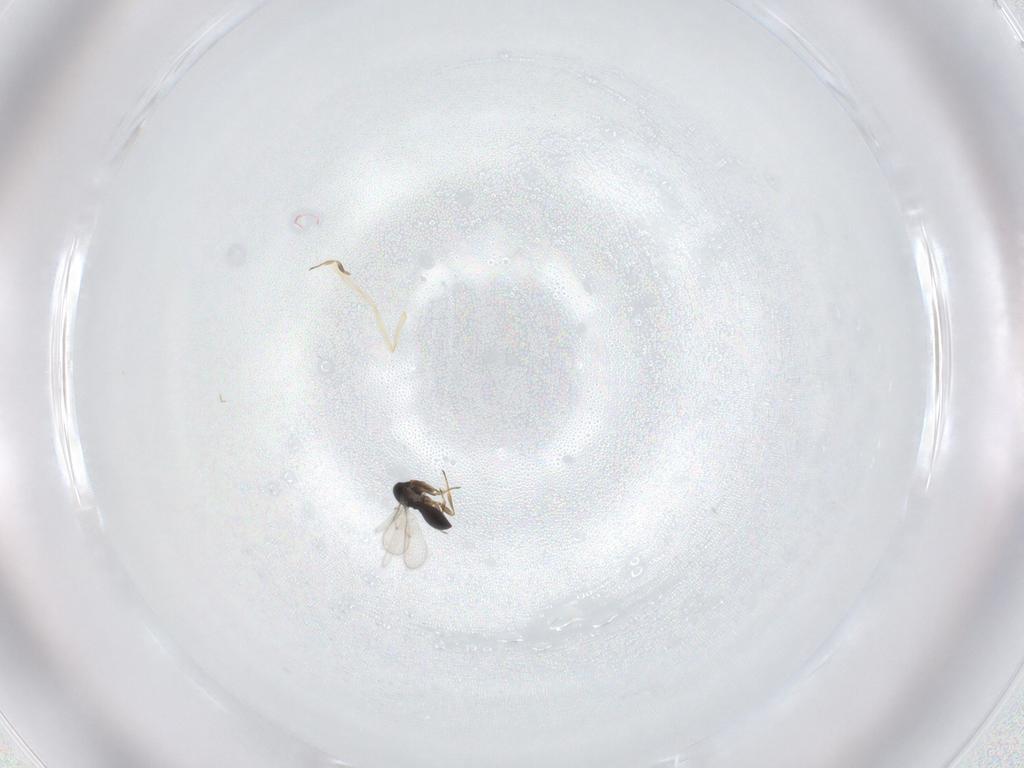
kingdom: Animalia
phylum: Arthropoda
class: Insecta
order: Hymenoptera
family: Scelionidae
